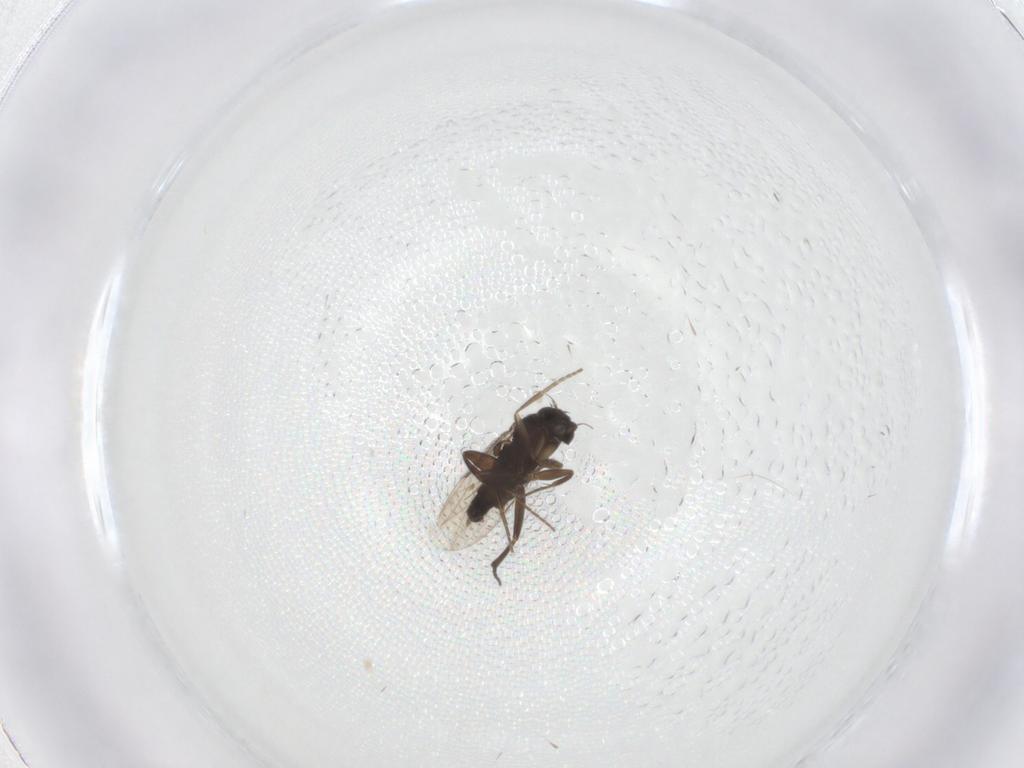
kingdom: Animalia
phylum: Arthropoda
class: Insecta
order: Diptera
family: Phoridae
